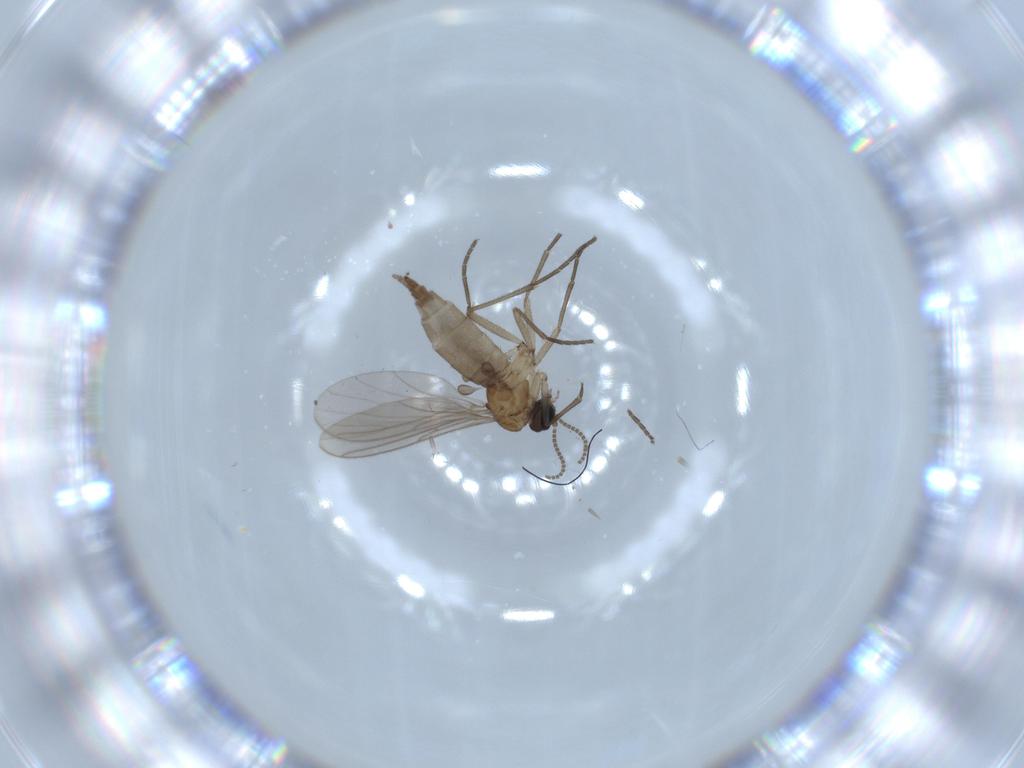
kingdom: Animalia
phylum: Arthropoda
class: Insecta
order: Diptera
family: Sciaridae
